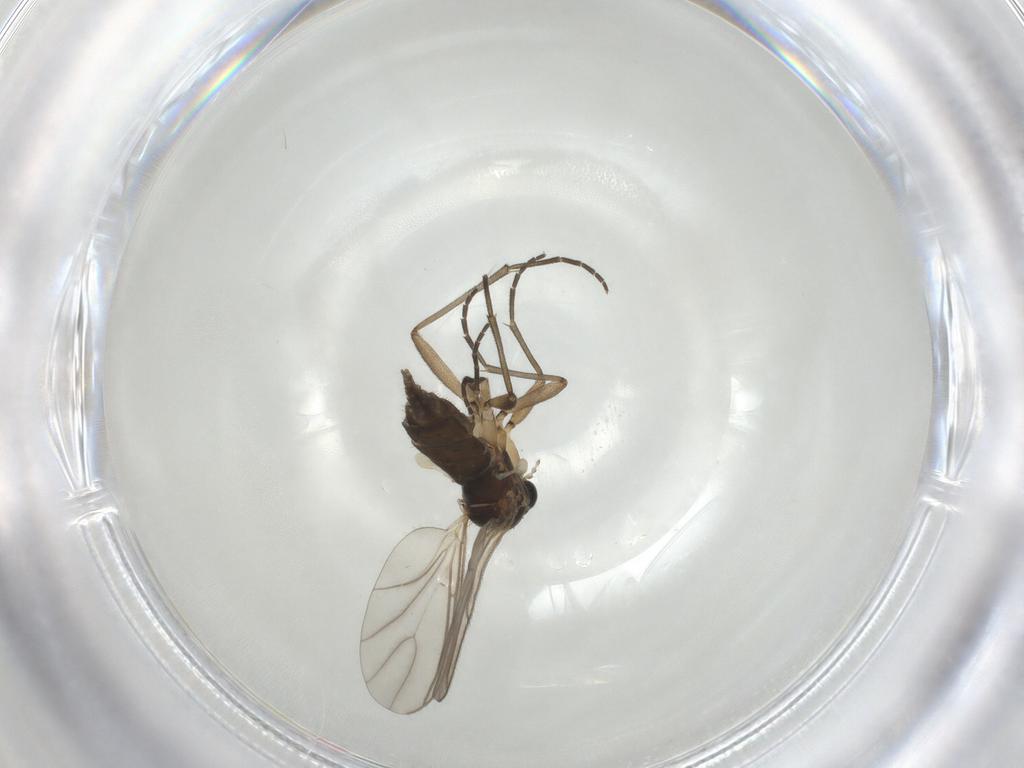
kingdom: Animalia
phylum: Arthropoda
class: Insecta
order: Diptera
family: Phoridae
